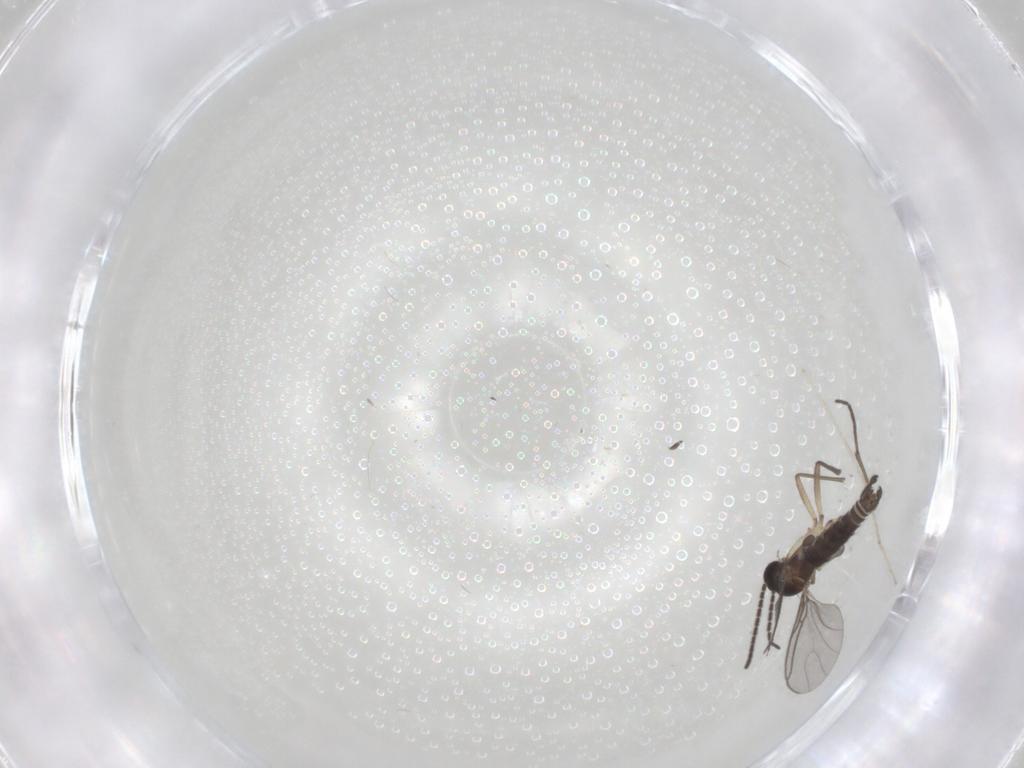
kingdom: Animalia
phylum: Arthropoda
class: Insecta
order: Diptera
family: Sciaridae
